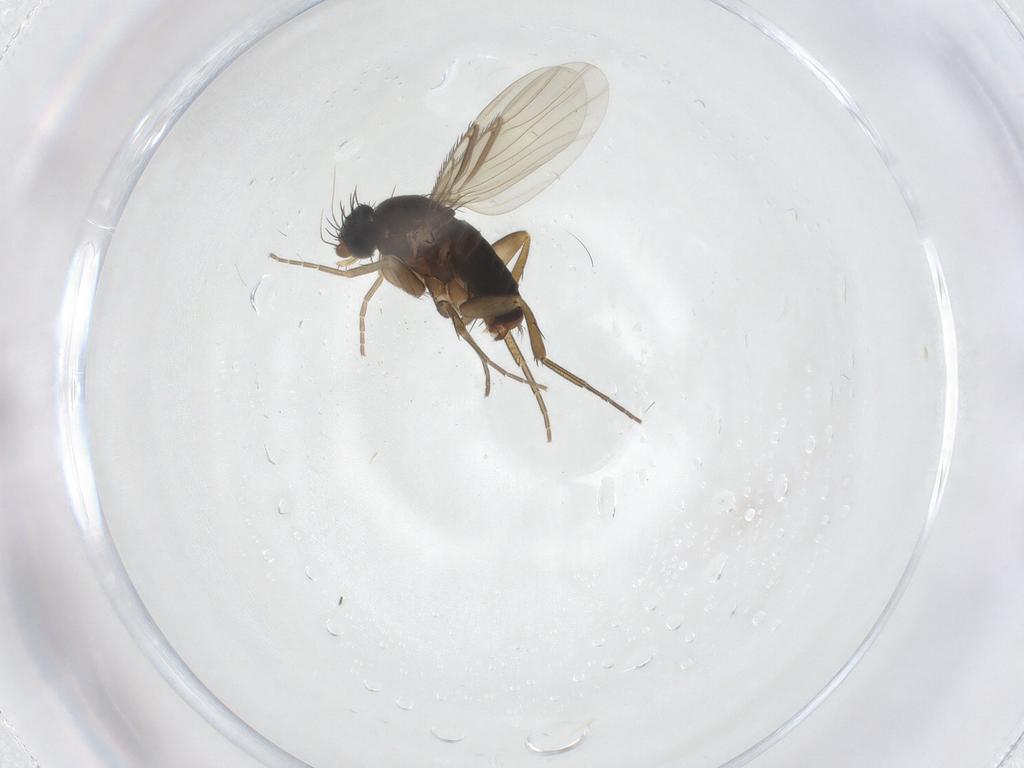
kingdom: Animalia
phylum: Arthropoda
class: Insecta
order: Diptera
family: Phoridae
